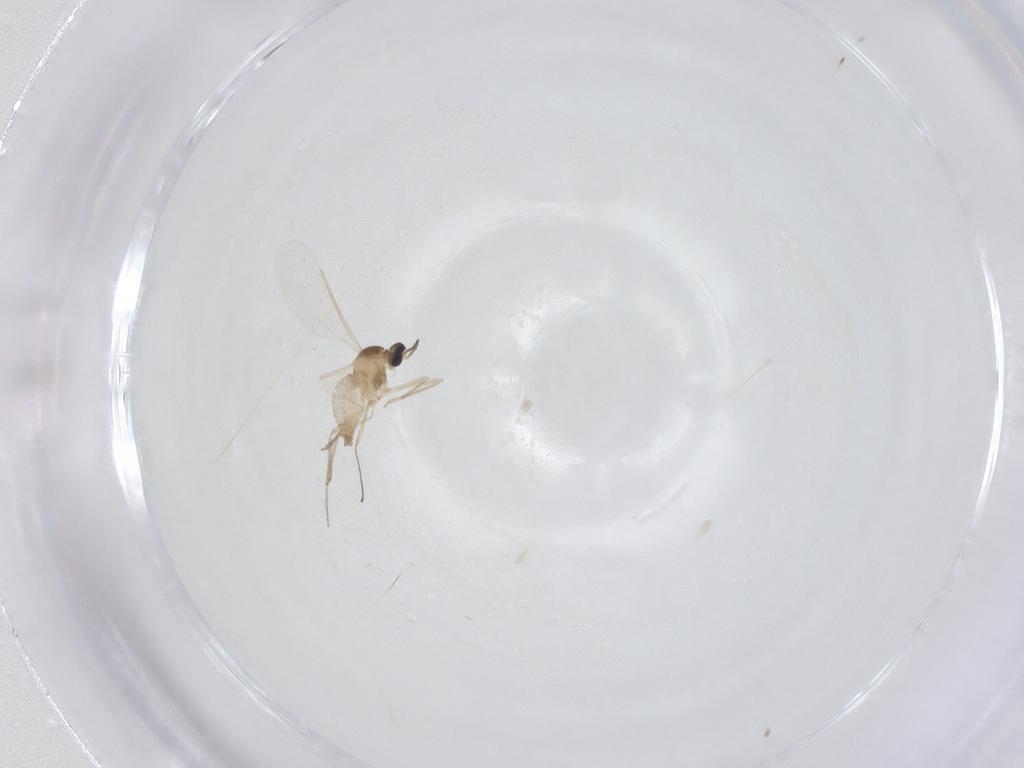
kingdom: Animalia
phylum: Arthropoda
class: Insecta
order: Diptera
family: Cecidomyiidae
